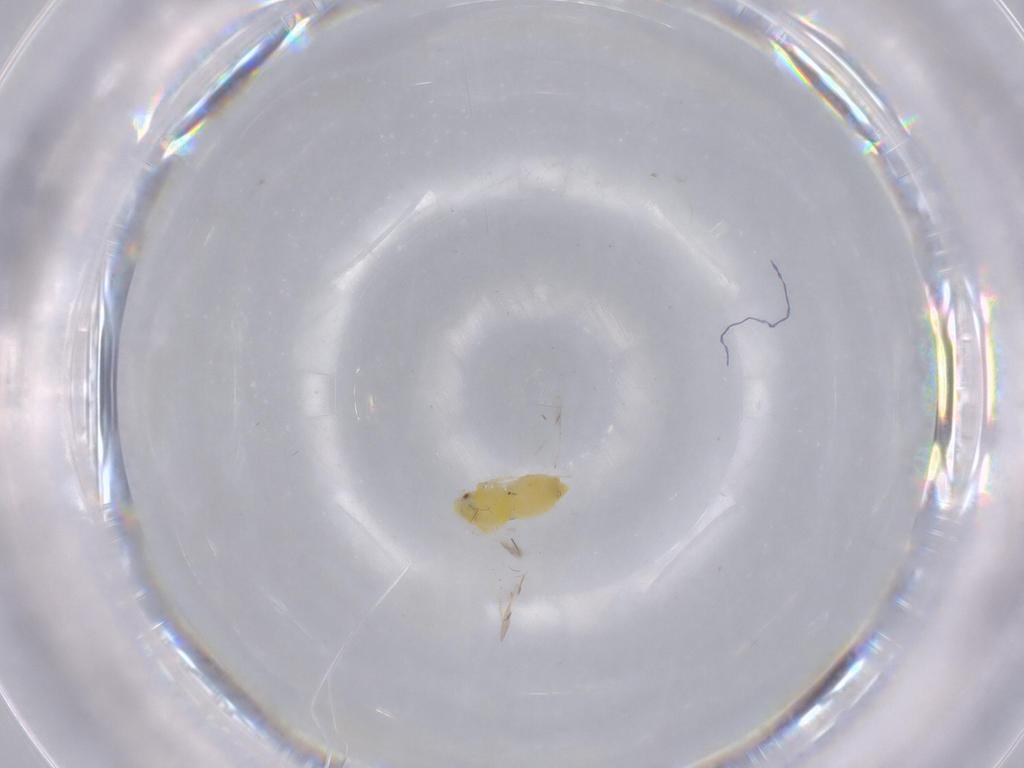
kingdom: Animalia
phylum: Arthropoda
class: Insecta
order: Hemiptera
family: Aleyrodidae
